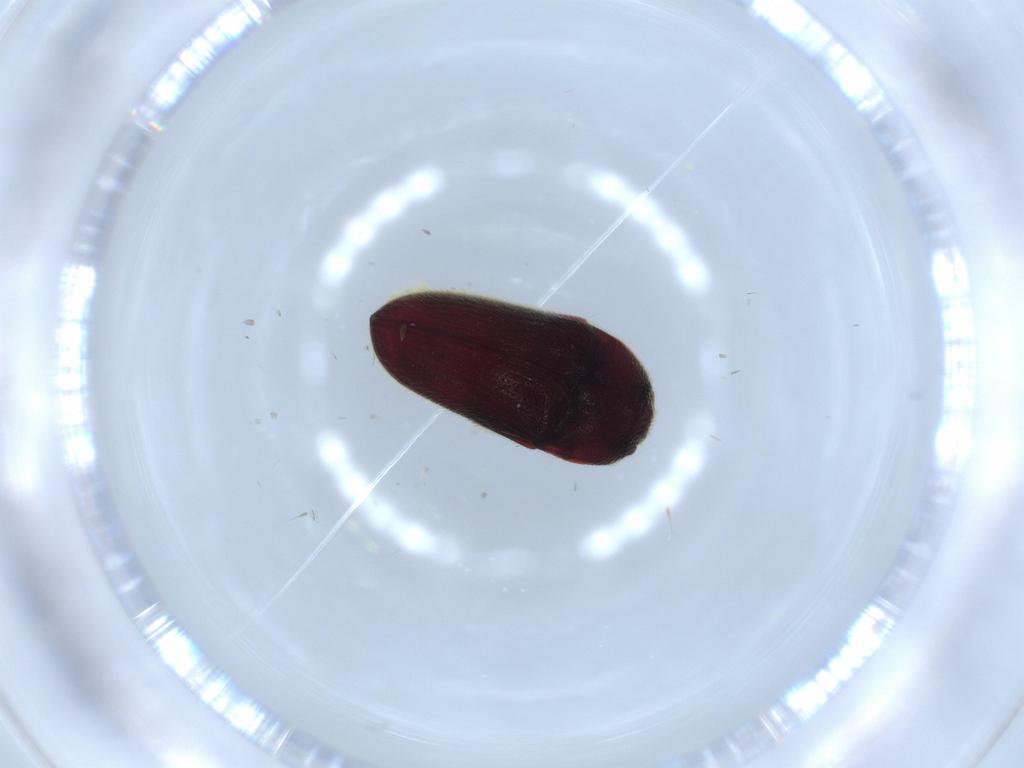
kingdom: Animalia
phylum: Arthropoda
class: Insecta
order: Coleoptera
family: Throscidae
